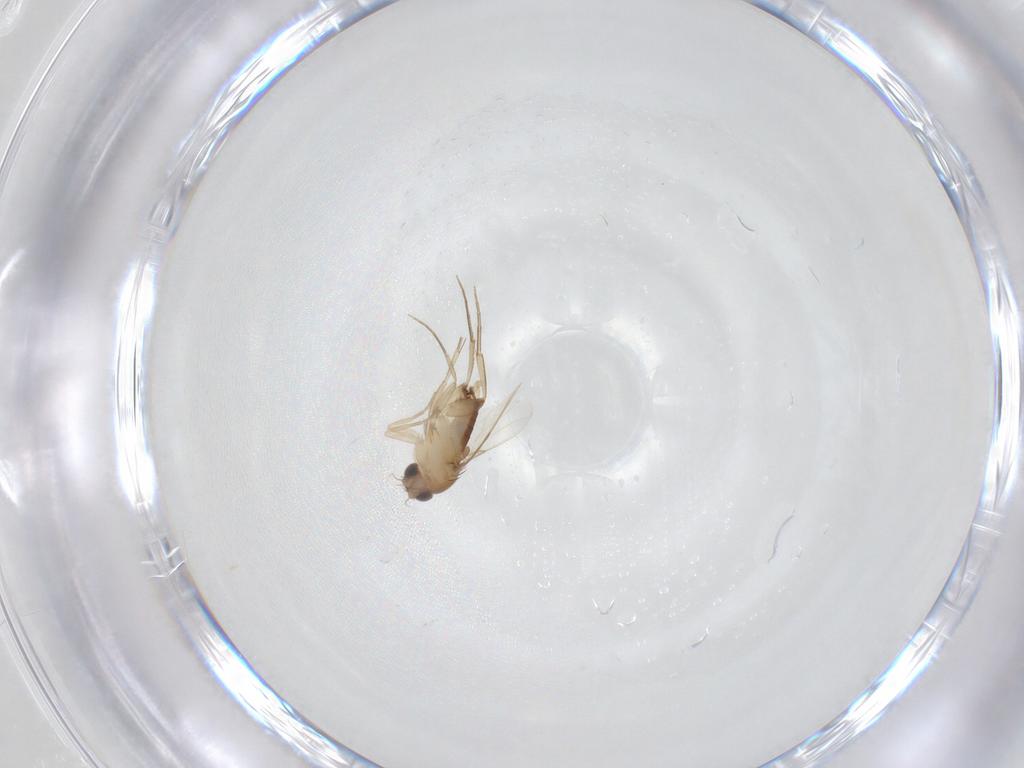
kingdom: Animalia
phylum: Arthropoda
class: Insecta
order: Diptera
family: Phoridae
